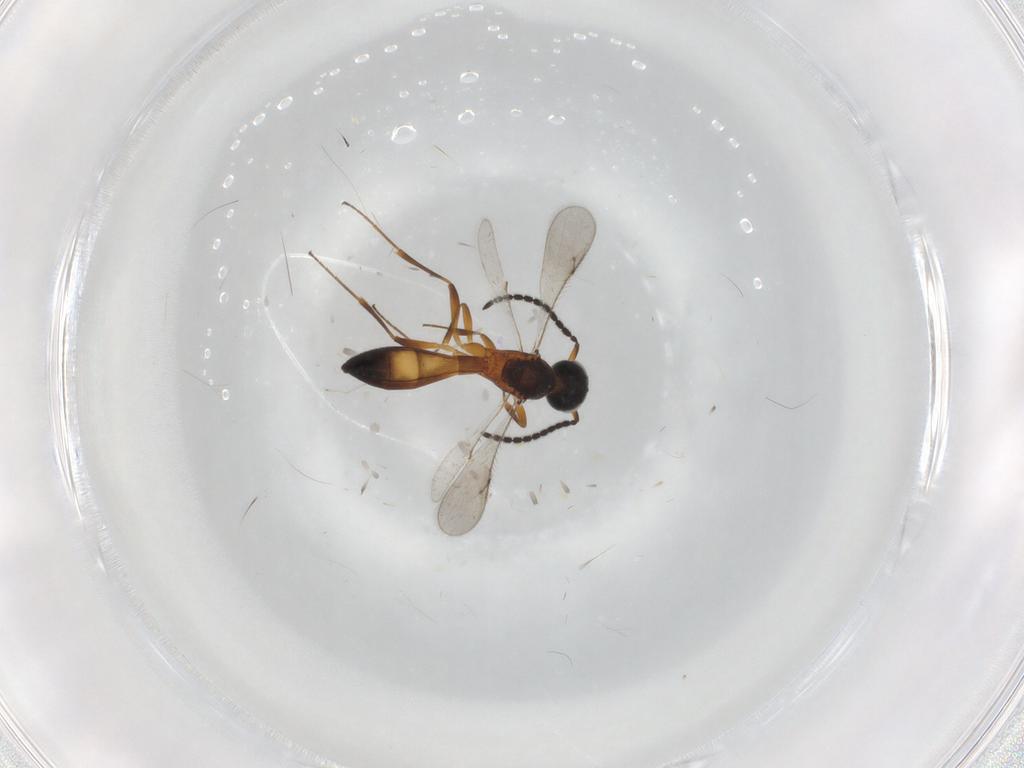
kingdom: Animalia
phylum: Arthropoda
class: Insecta
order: Hymenoptera
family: Scelionidae
